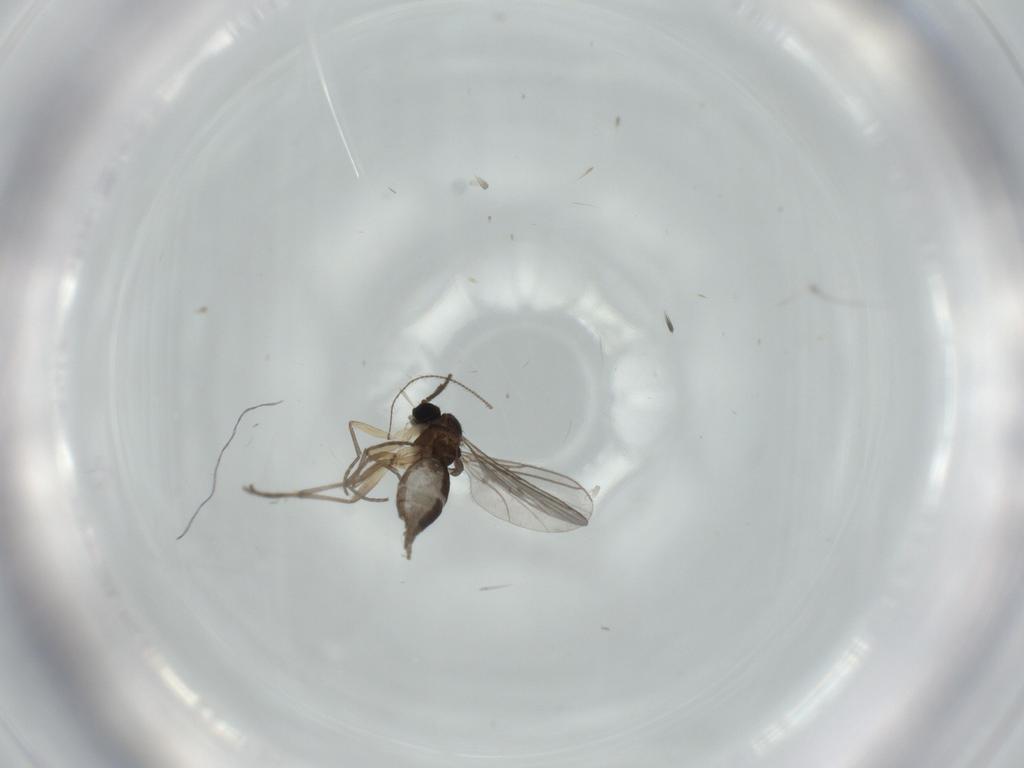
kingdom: Animalia
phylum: Arthropoda
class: Insecta
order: Diptera
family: Sciaridae
